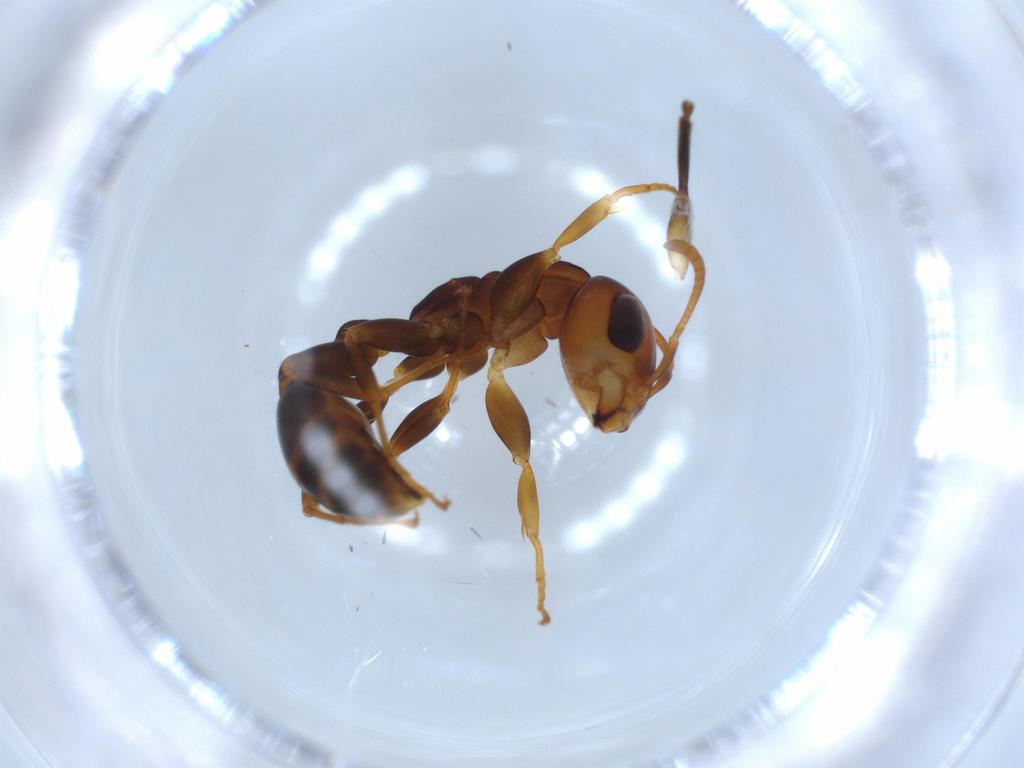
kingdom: Animalia
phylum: Arthropoda
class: Insecta
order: Hymenoptera
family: Formicidae
